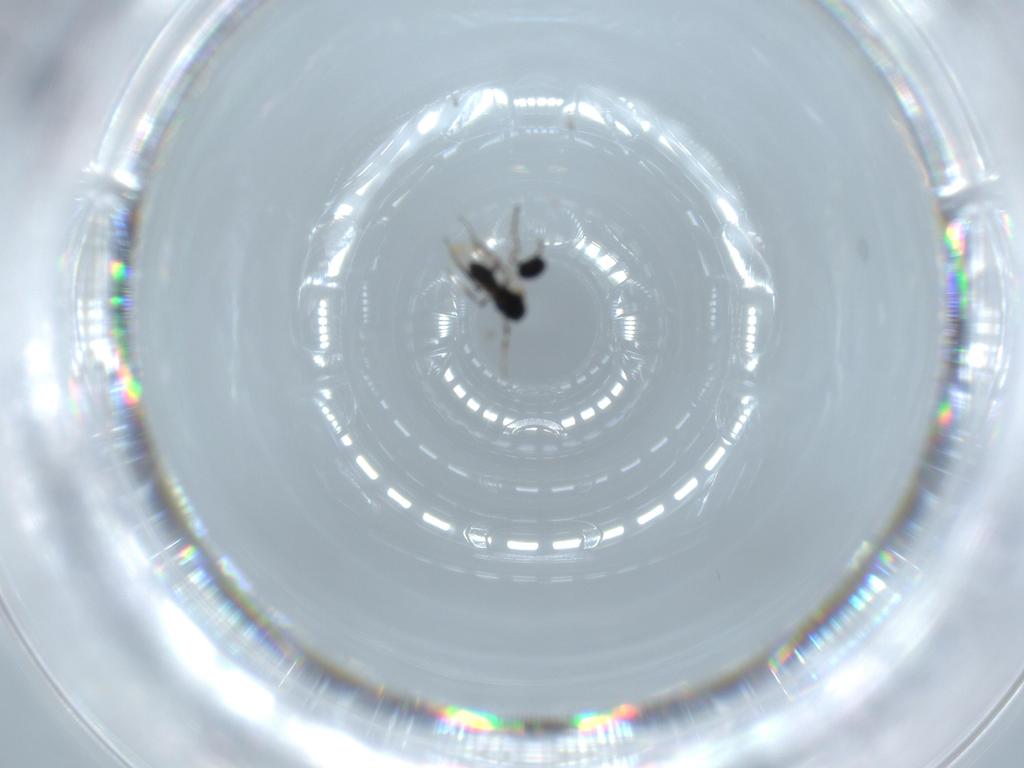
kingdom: Animalia
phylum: Arthropoda
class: Insecta
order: Hymenoptera
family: Platygastridae
